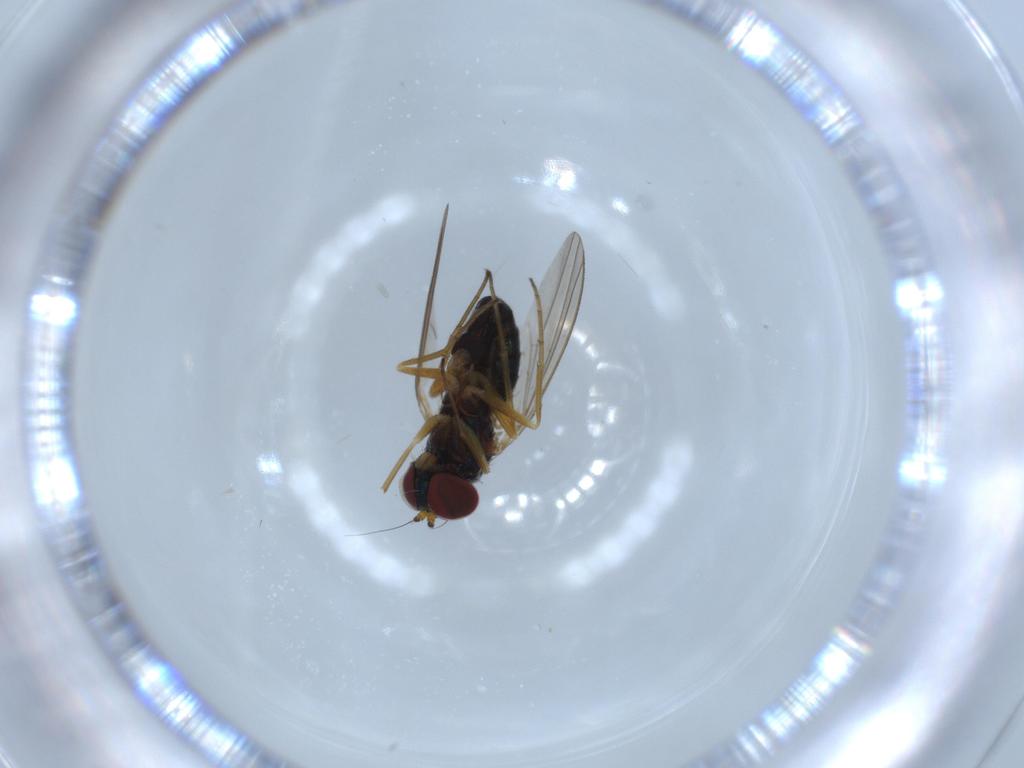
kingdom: Animalia
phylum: Arthropoda
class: Insecta
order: Diptera
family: Dolichopodidae
